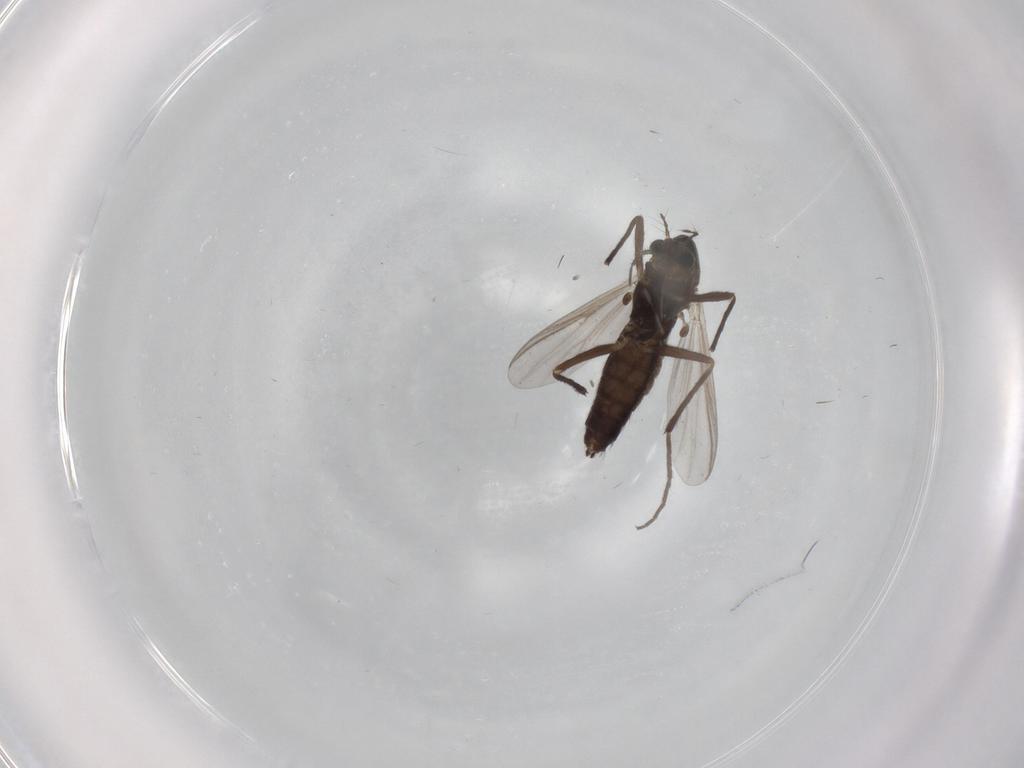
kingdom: Animalia
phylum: Arthropoda
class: Insecta
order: Diptera
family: Chironomidae
